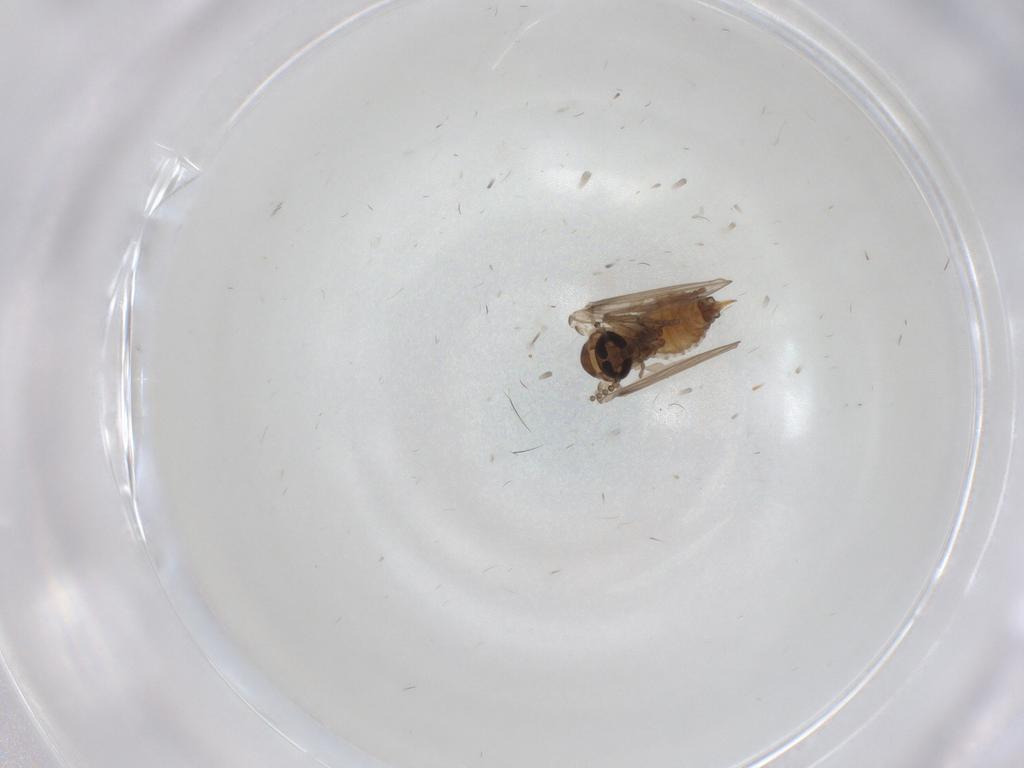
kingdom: Animalia
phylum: Arthropoda
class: Insecta
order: Diptera
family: Psychodidae
